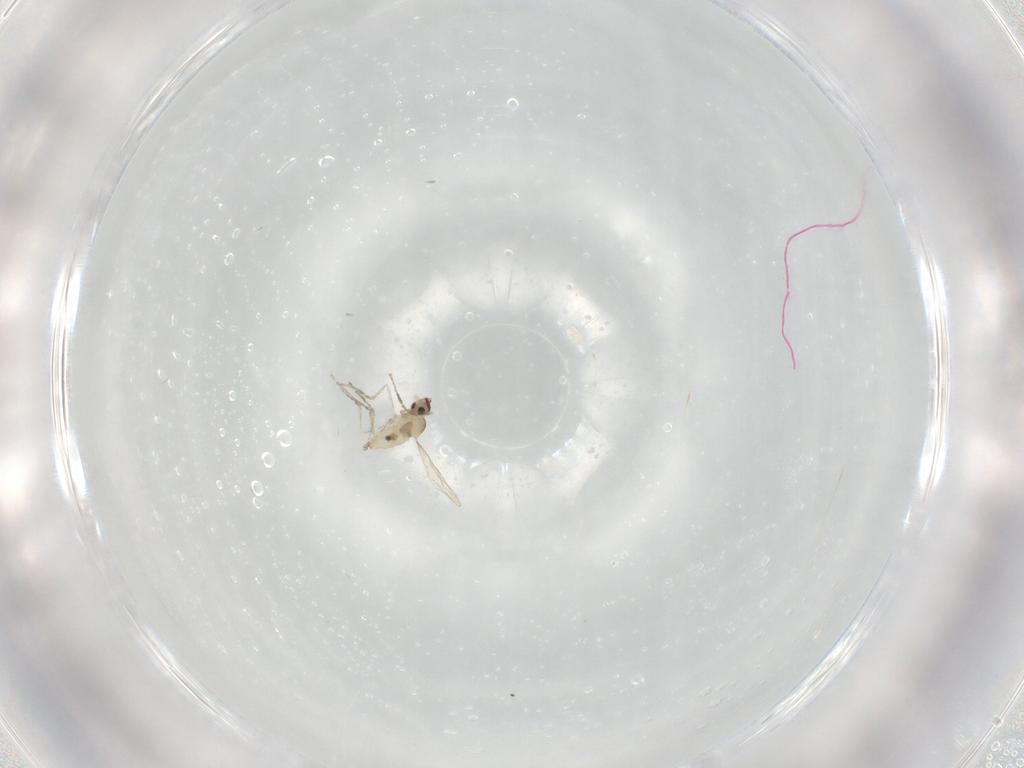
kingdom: Animalia
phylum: Arthropoda
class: Insecta
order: Diptera
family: Cecidomyiidae
